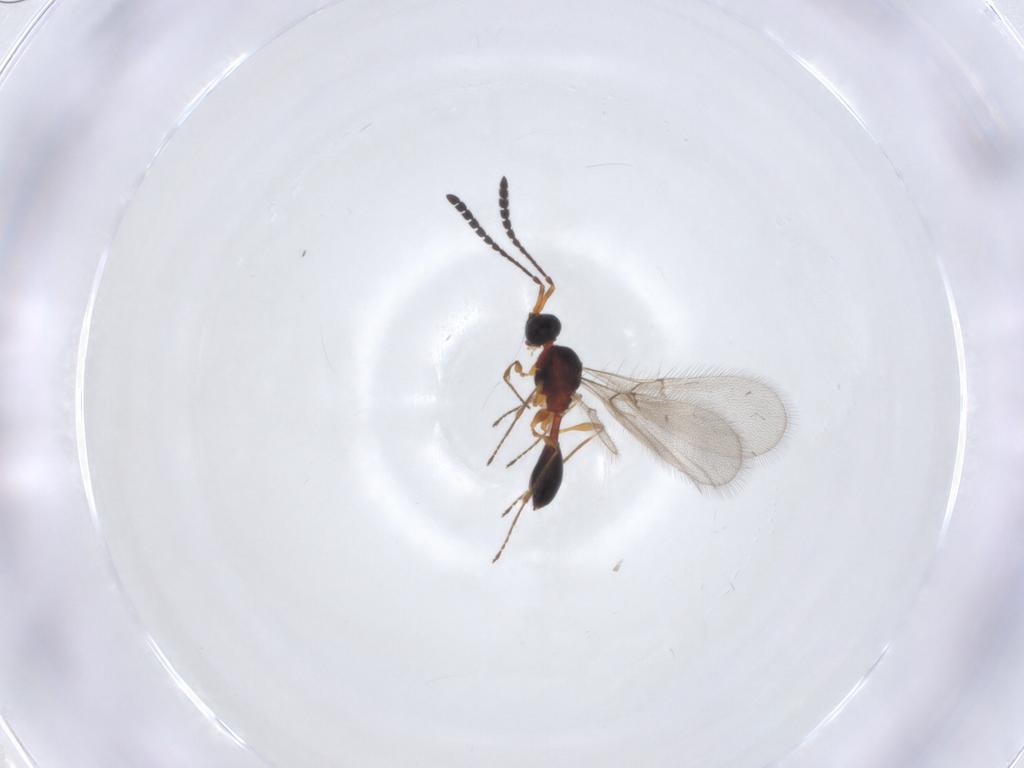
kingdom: Animalia
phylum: Arthropoda
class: Insecta
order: Hymenoptera
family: Diapriidae
